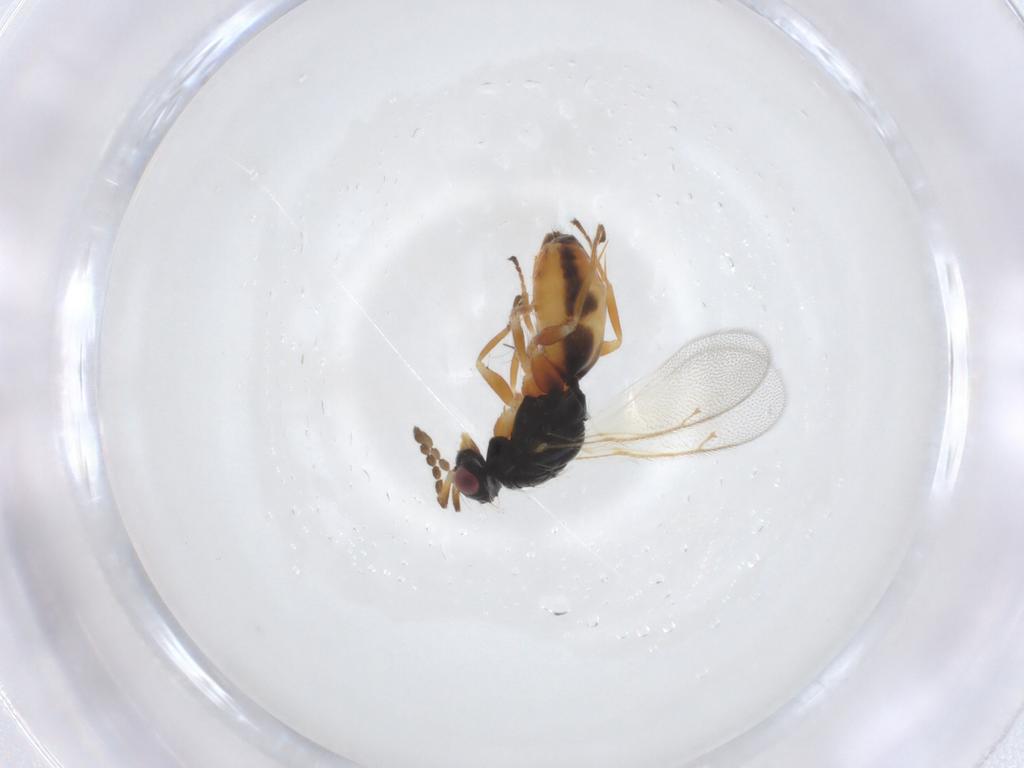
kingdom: Animalia
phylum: Arthropoda
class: Insecta
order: Hymenoptera
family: Eulophidae
